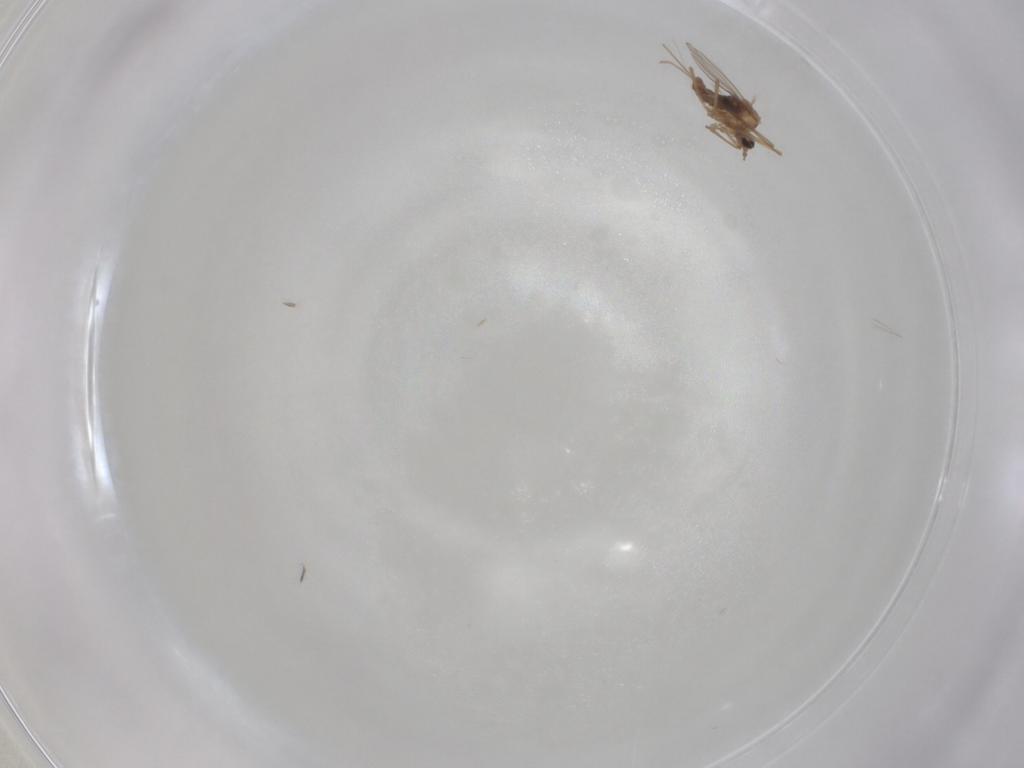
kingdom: Animalia
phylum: Arthropoda
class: Insecta
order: Diptera
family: Cecidomyiidae
